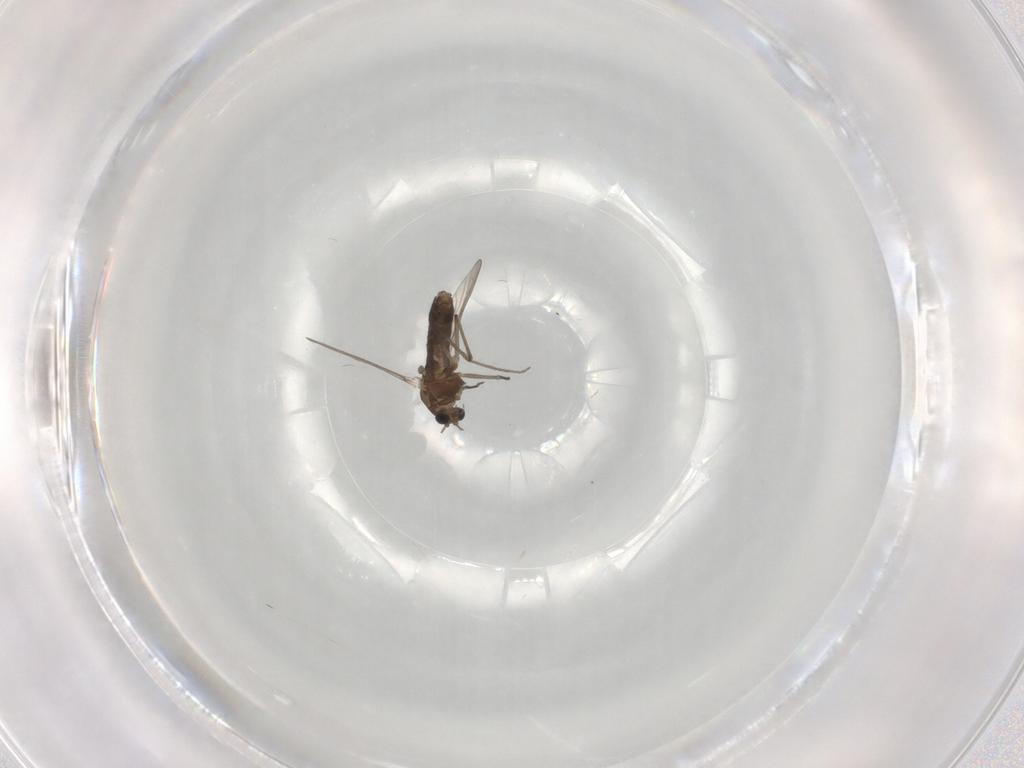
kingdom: Animalia
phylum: Arthropoda
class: Insecta
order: Diptera
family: Chironomidae
